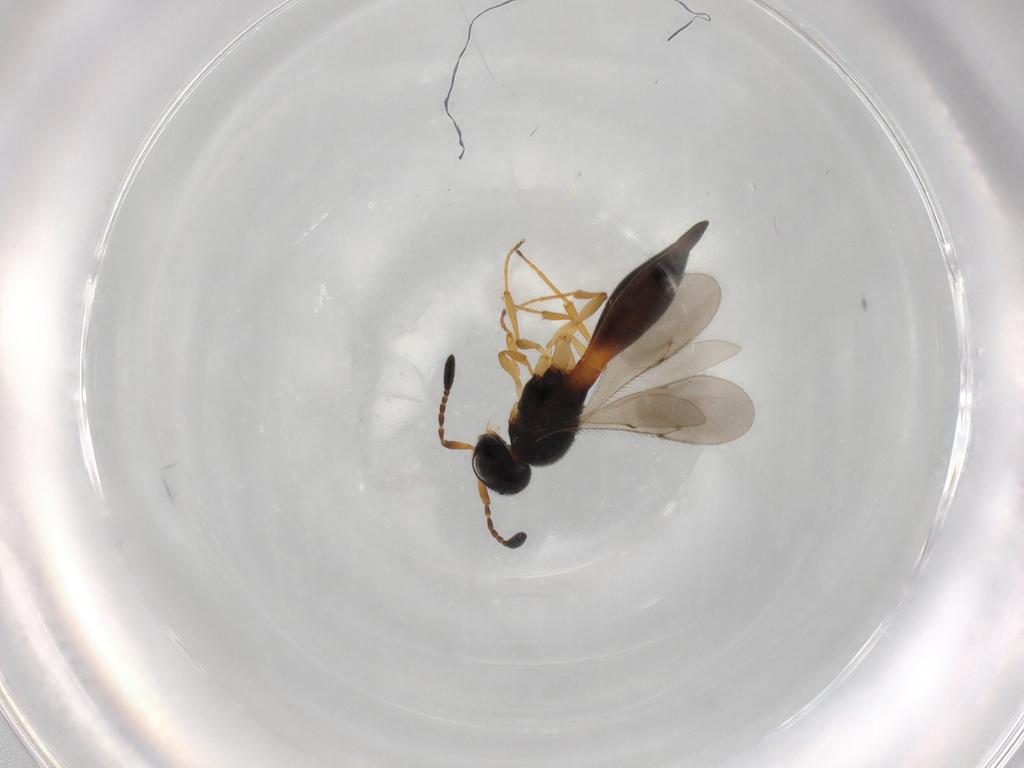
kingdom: Animalia
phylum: Arthropoda
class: Insecta
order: Hymenoptera
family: Scelionidae
